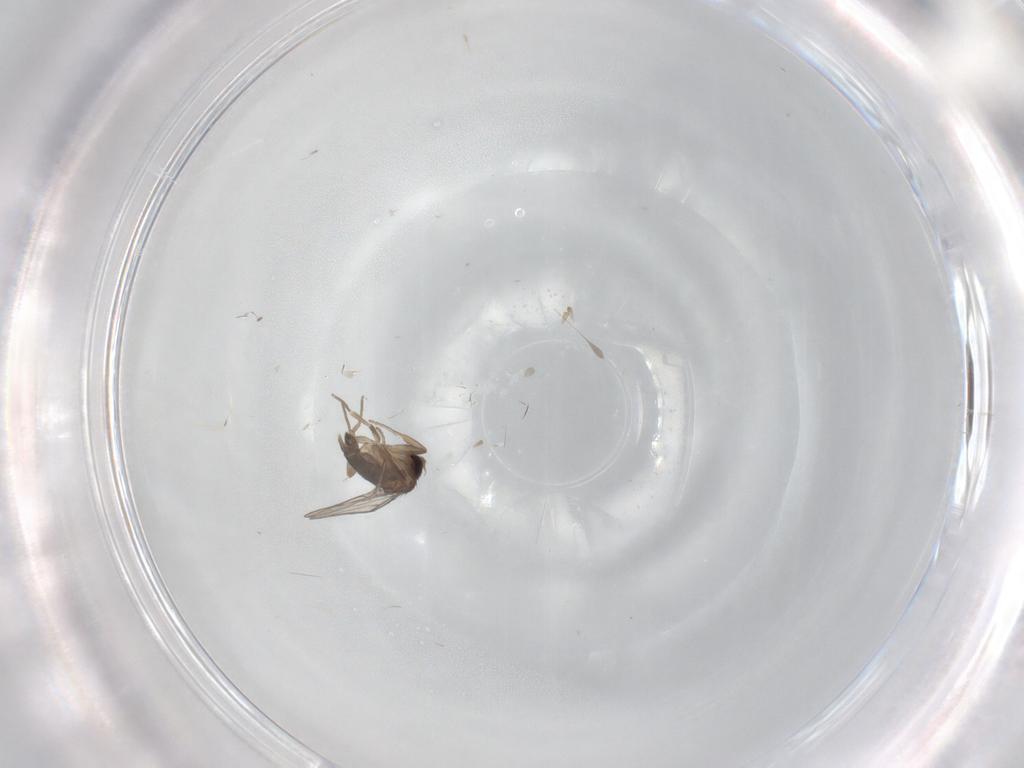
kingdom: Animalia
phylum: Arthropoda
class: Insecta
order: Diptera
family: Phoridae
